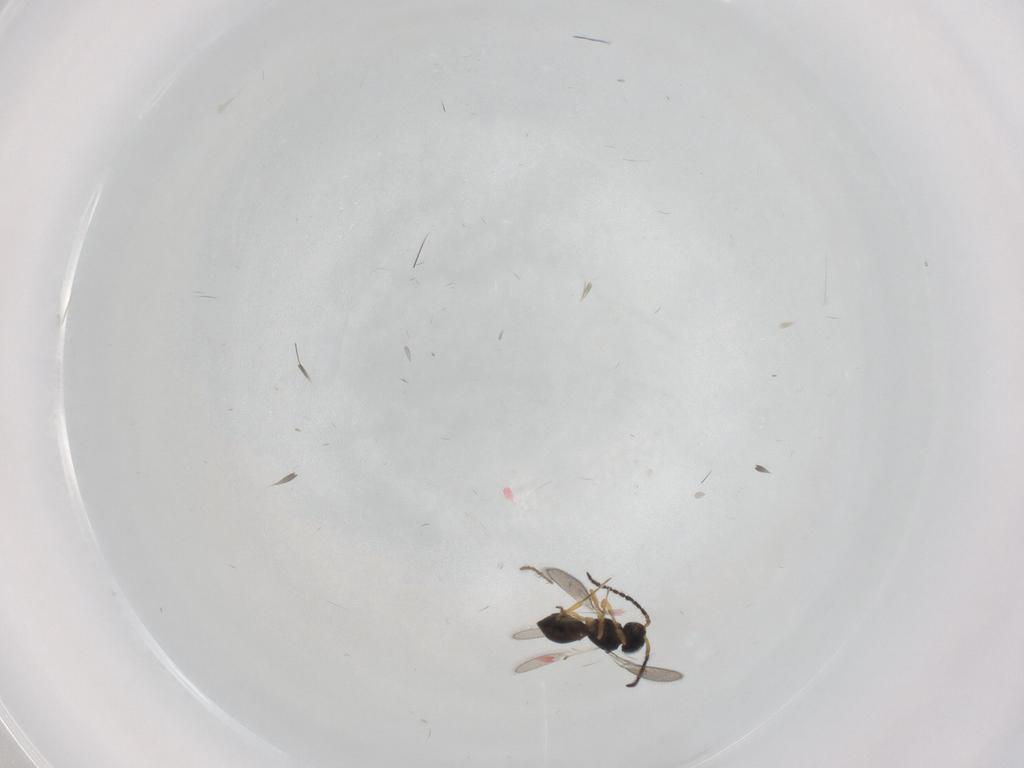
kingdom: Animalia
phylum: Arthropoda
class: Insecta
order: Hymenoptera
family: Scelionidae
